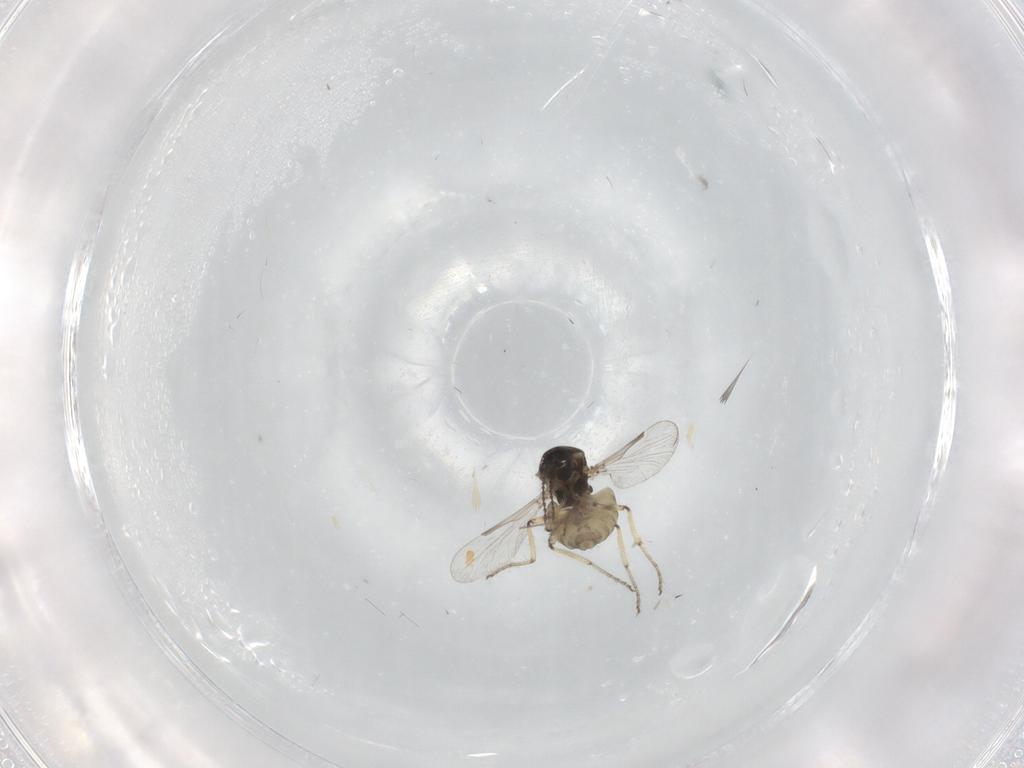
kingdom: Animalia
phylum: Arthropoda
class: Insecta
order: Diptera
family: Chironomidae
